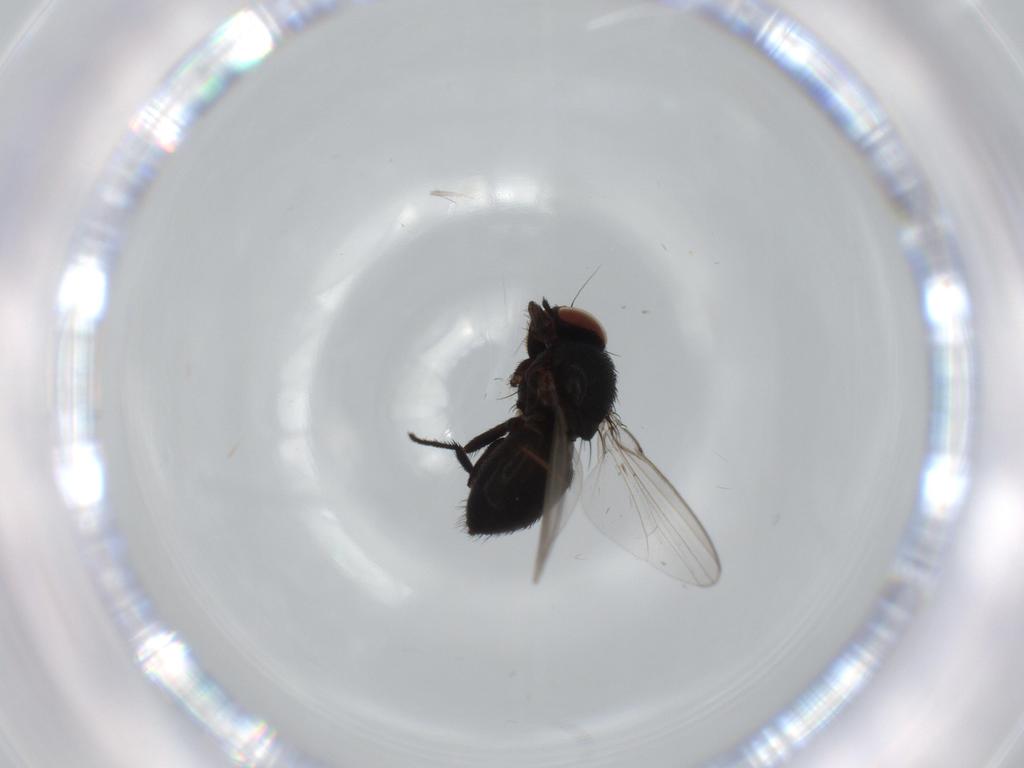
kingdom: Animalia
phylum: Arthropoda
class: Insecta
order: Diptera
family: Milichiidae
